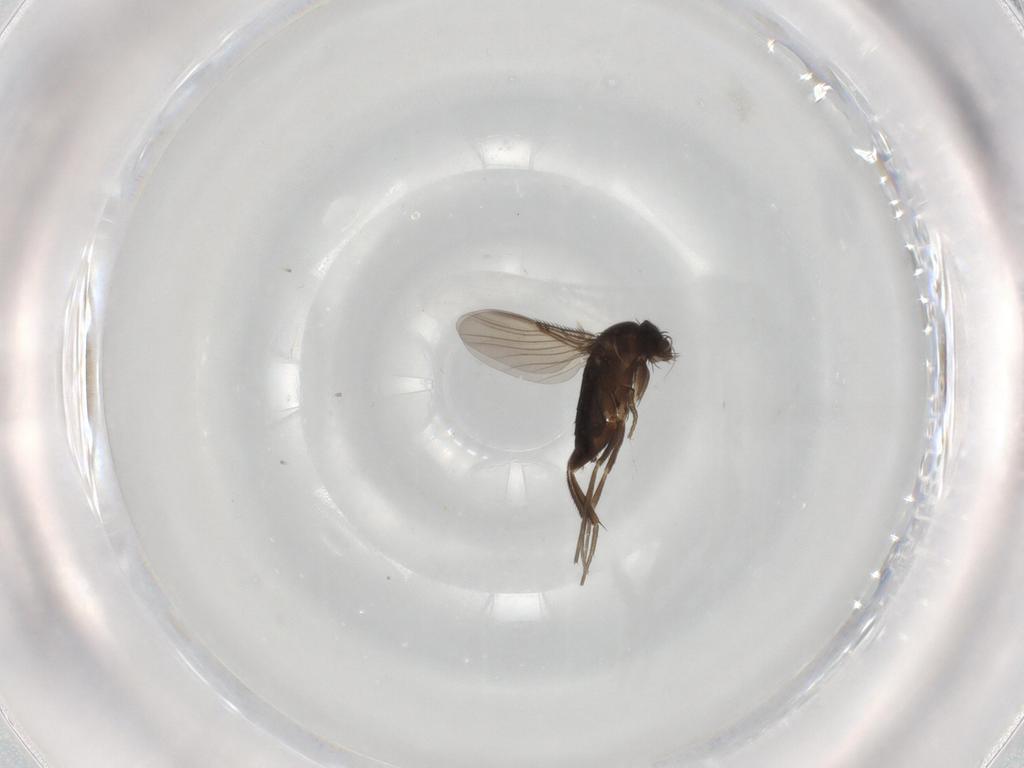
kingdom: Animalia
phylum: Arthropoda
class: Insecta
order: Diptera
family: Phoridae
